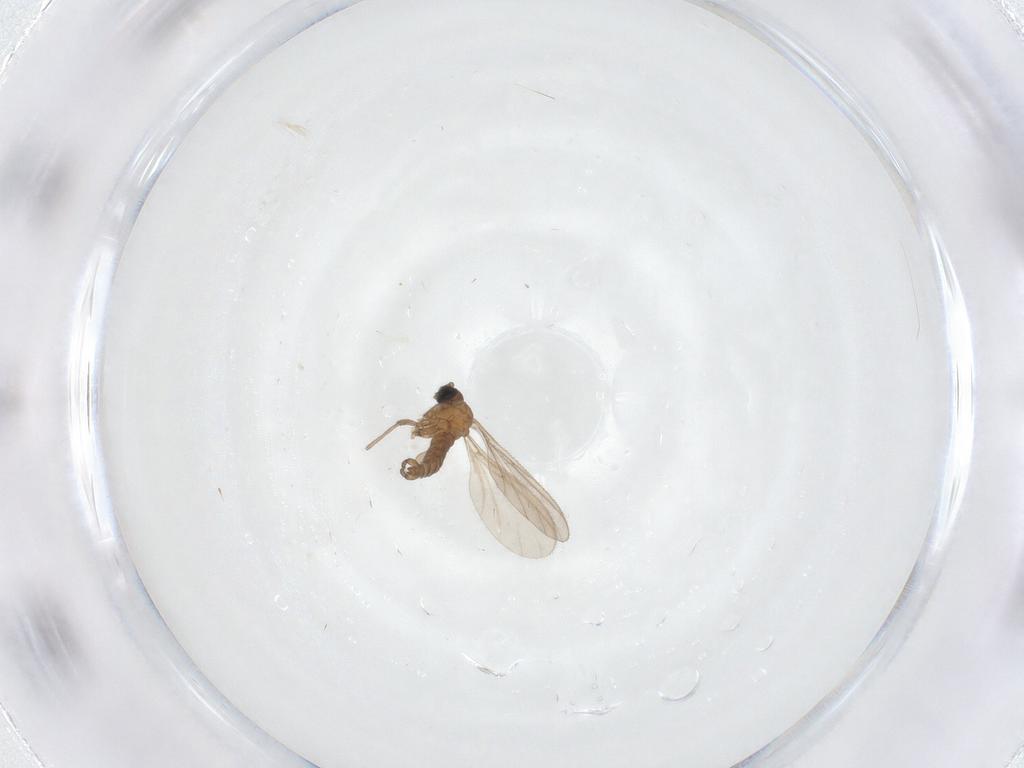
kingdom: Animalia
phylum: Arthropoda
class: Insecta
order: Diptera
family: Sciaridae
